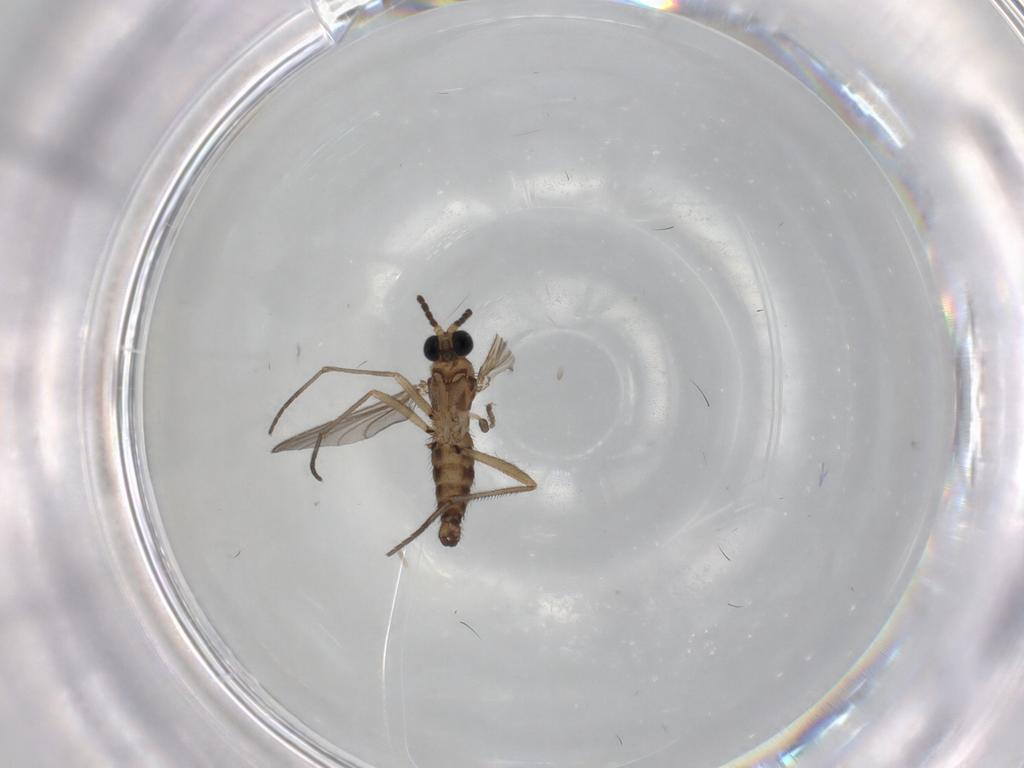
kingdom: Animalia
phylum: Arthropoda
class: Insecta
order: Diptera
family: Sciaridae
